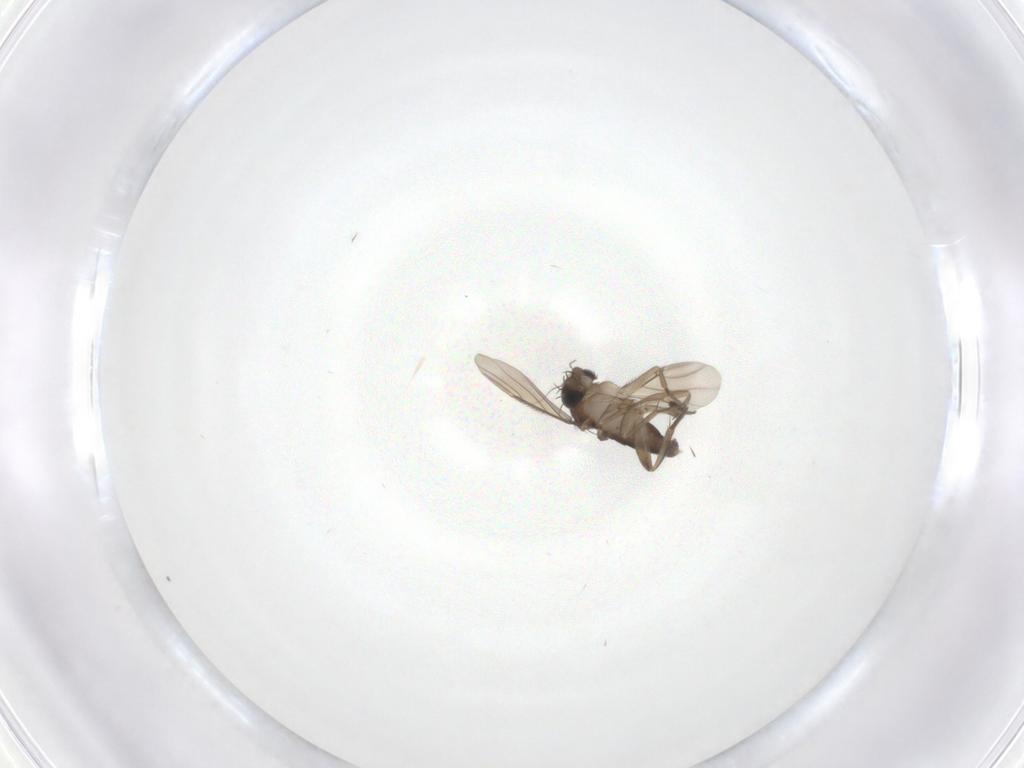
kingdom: Animalia
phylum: Arthropoda
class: Insecta
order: Diptera
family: Phoridae
